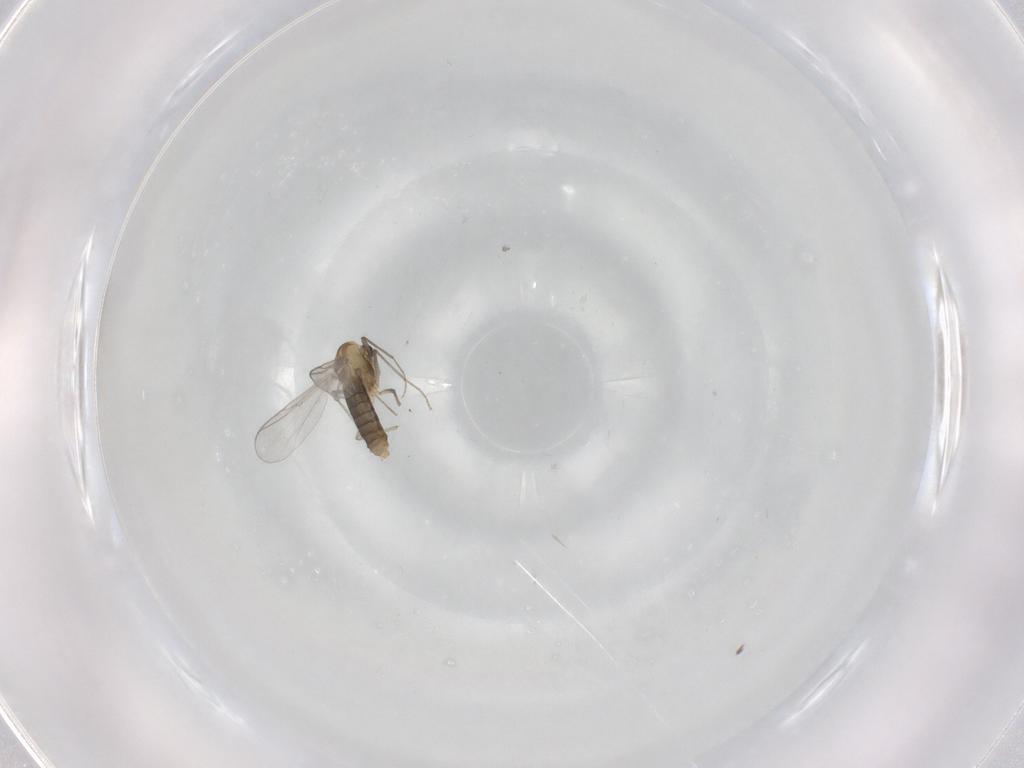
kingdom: Animalia
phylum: Arthropoda
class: Insecta
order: Diptera
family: Chironomidae
